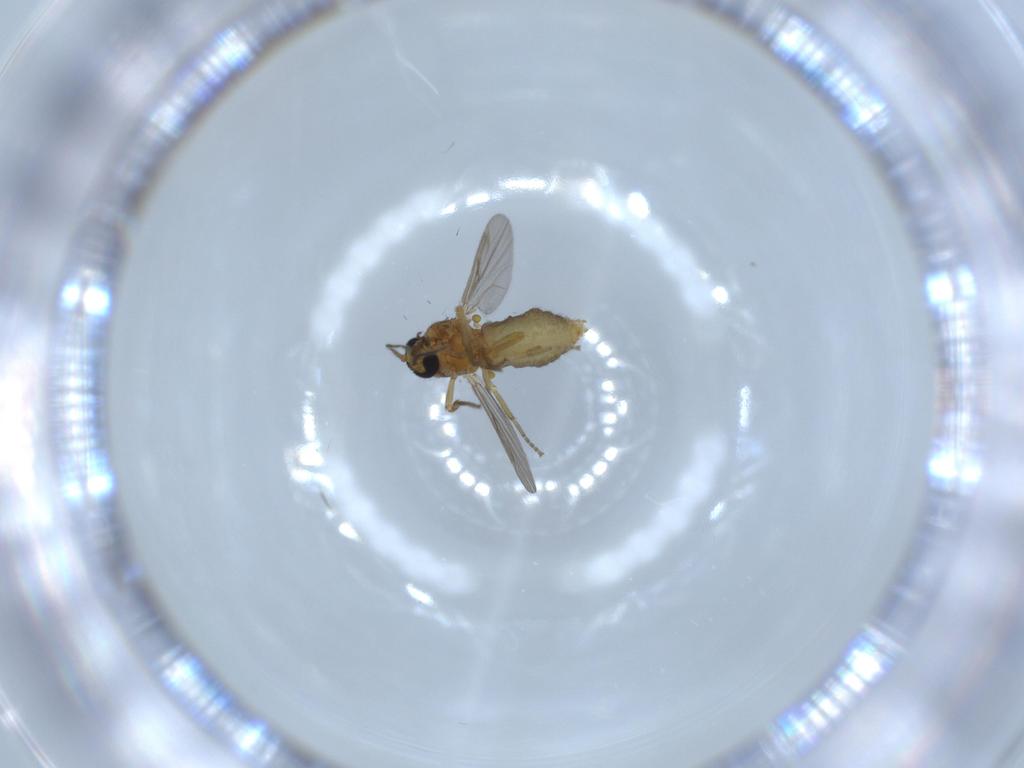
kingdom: Animalia
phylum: Arthropoda
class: Insecta
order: Diptera
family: Ceratopogonidae
